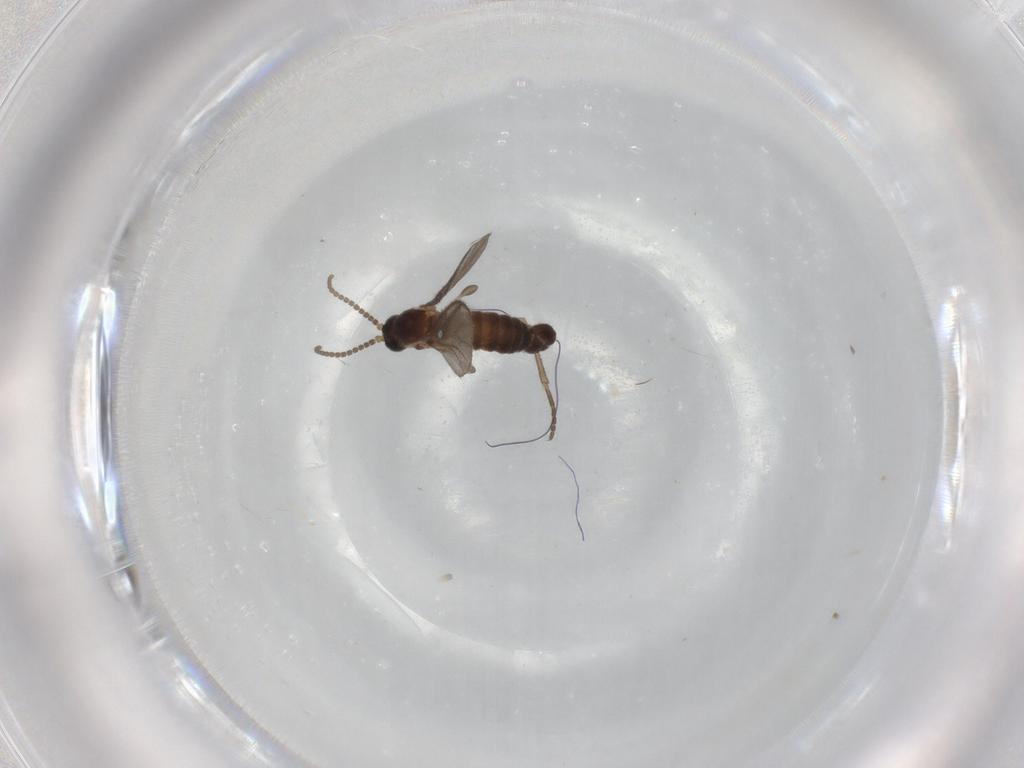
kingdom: Animalia
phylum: Arthropoda
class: Insecta
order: Diptera
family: Sciaridae
